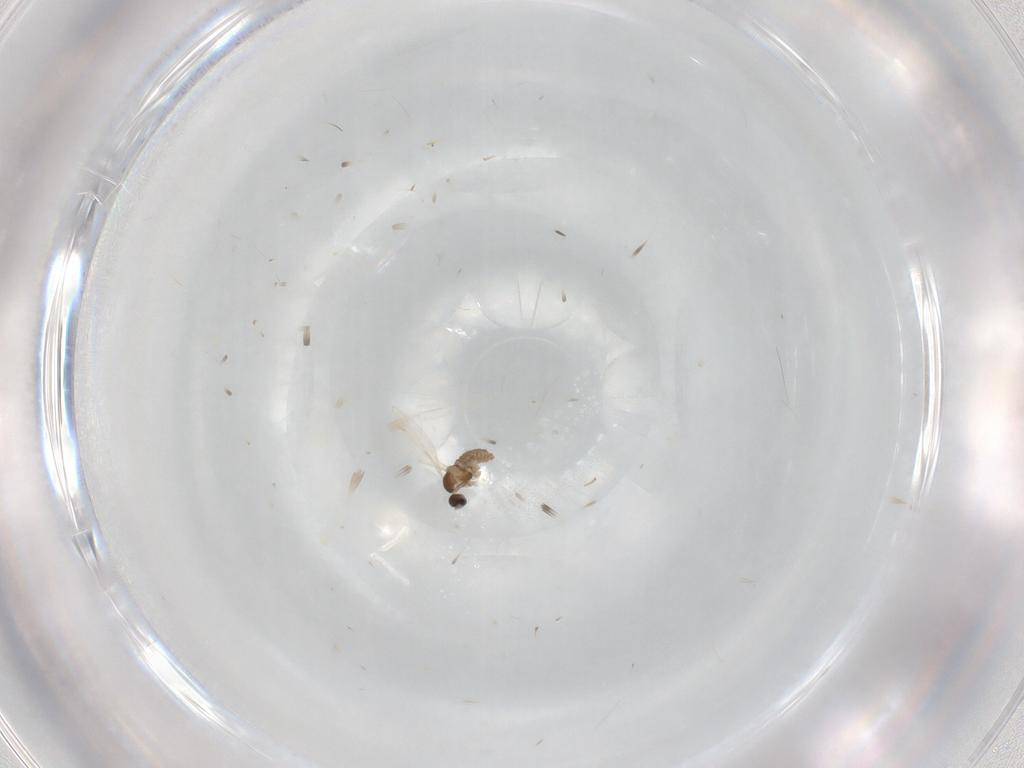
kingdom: Animalia
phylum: Arthropoda
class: Insecta
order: Diptera
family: Cecidomyiidae
